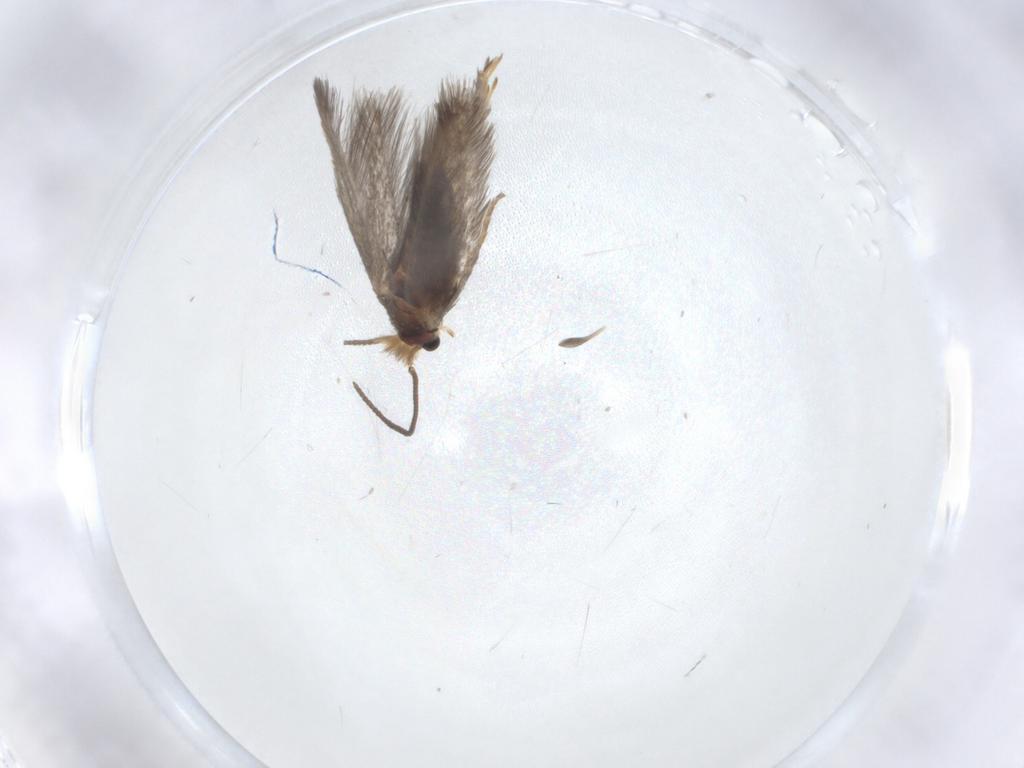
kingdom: Animalia
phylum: Arthropoda
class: Insecta
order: Lepidoptera
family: Nepticulidae
